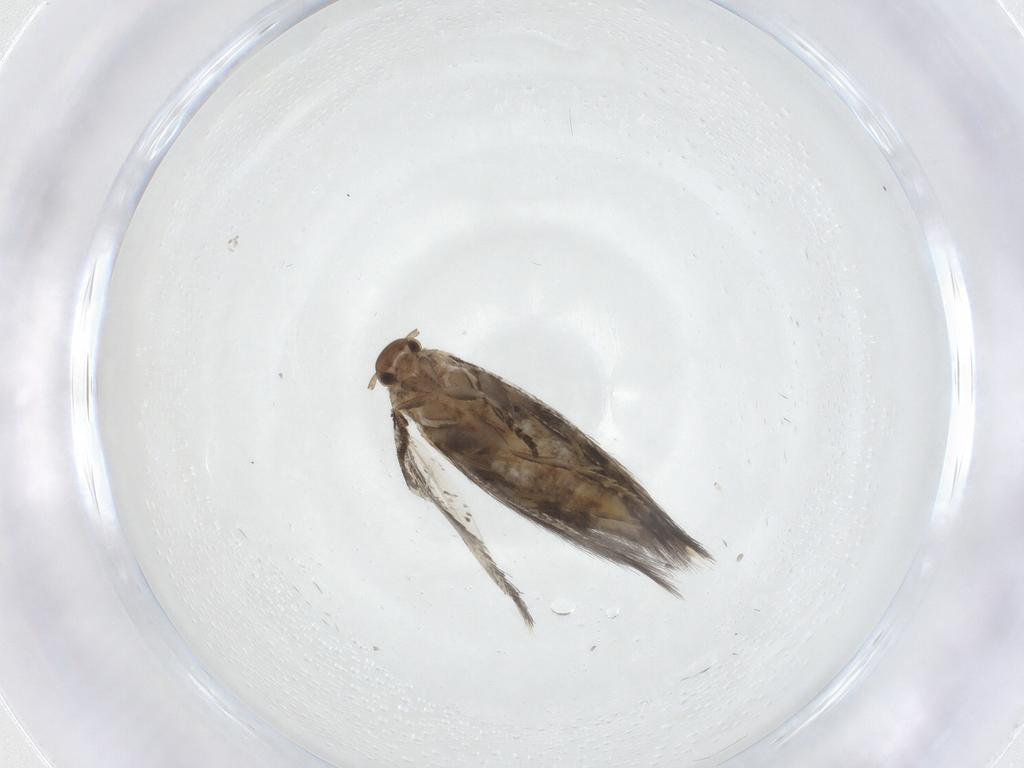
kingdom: Animalia
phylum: Arthropoda
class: Insecta
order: Lepidoptera
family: Elachistidae
